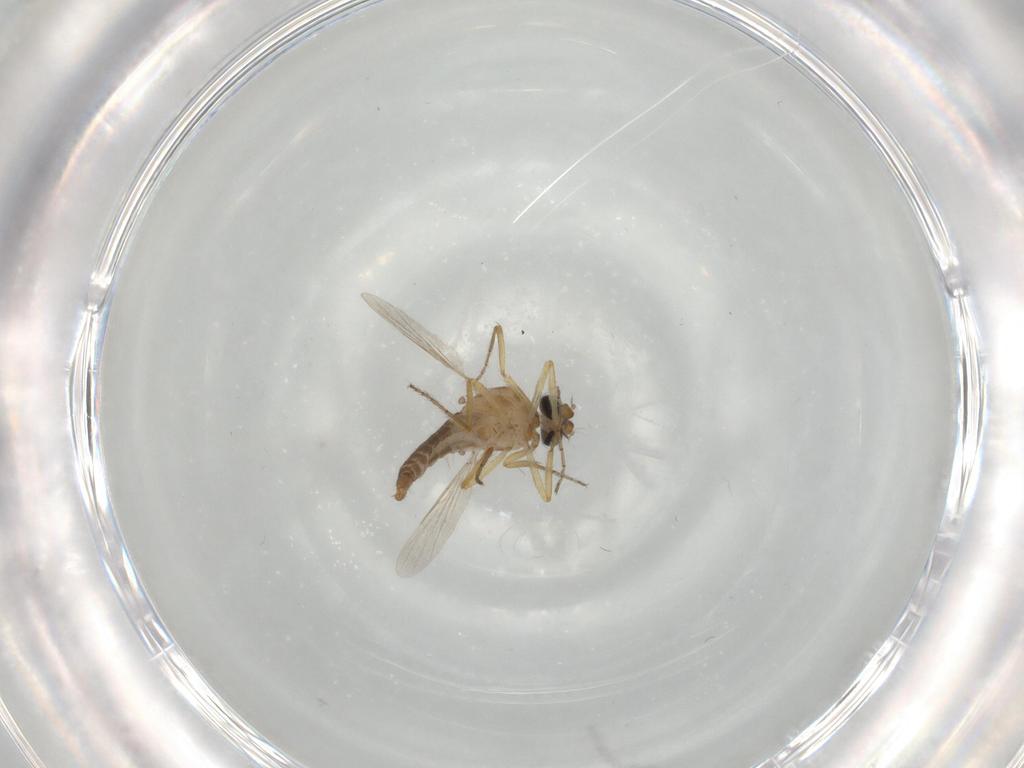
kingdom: Animalia
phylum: Arthropoda
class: Insecta
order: Diptera
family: Ceratopogonidae
